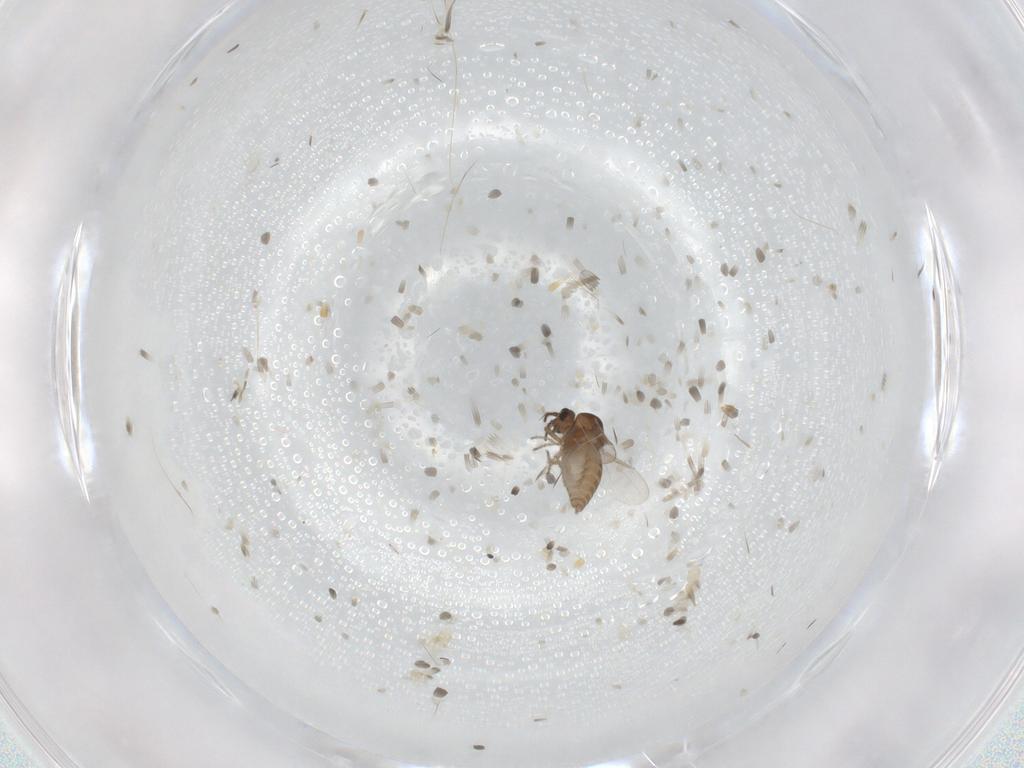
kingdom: Animalia
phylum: Arthropoda
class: Insecta
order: Diptera
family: Ceratopogonidae
